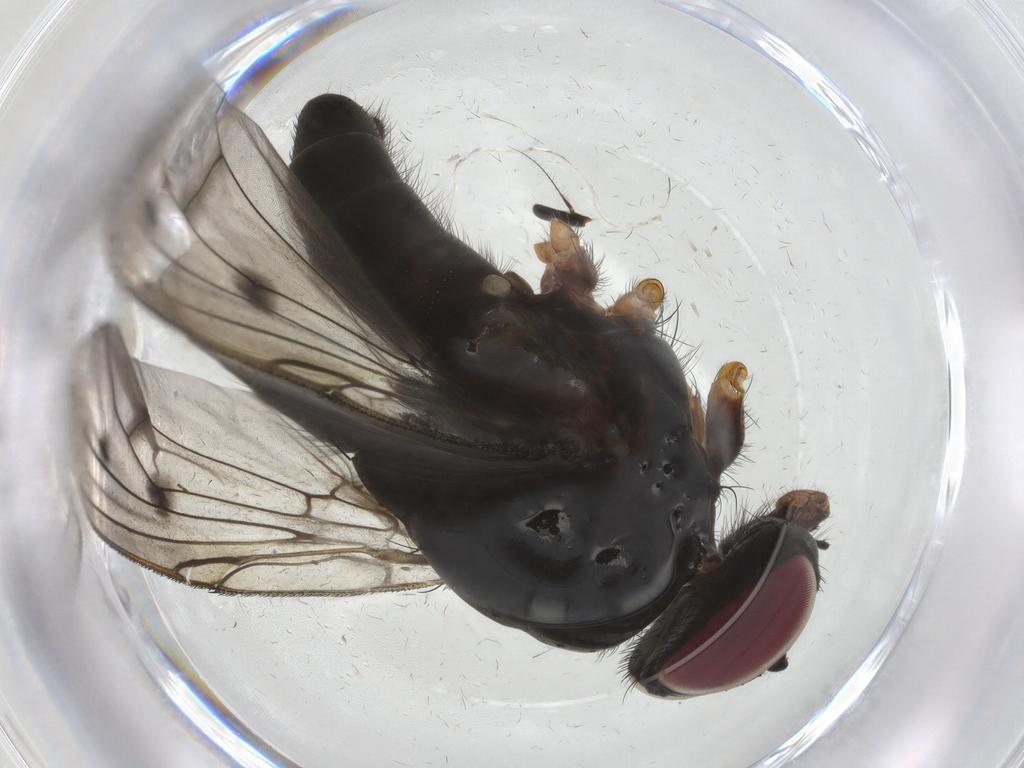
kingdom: Animalia
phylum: Arthropoda
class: Insecta
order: Diptera
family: Muscidae
